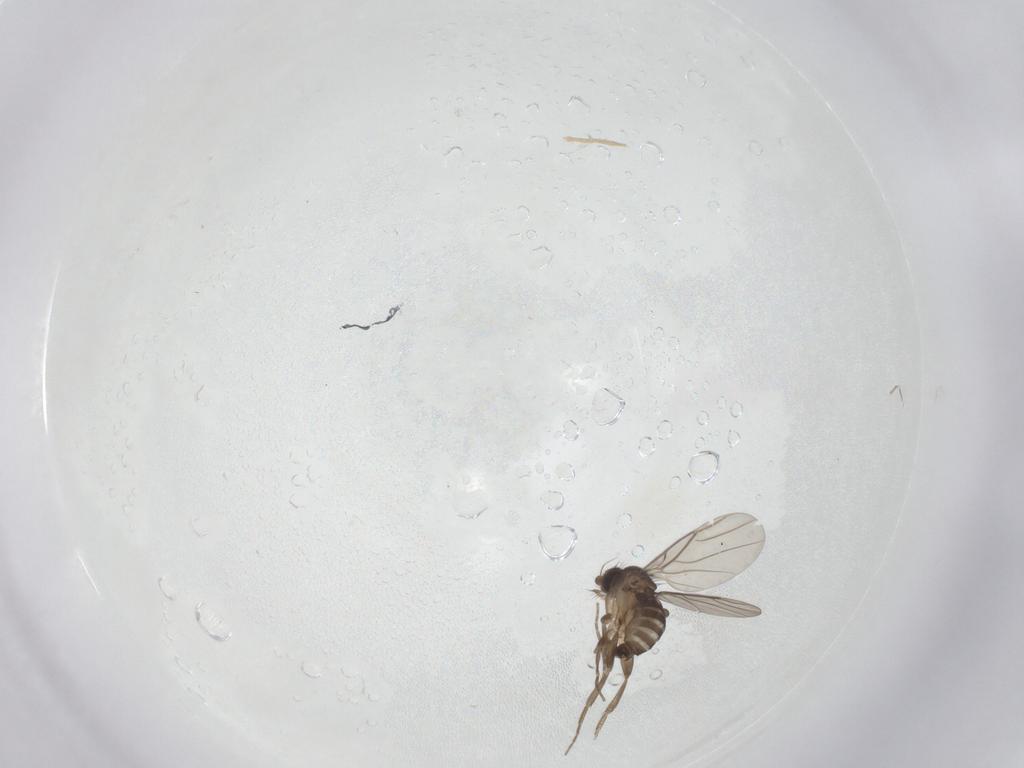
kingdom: Animalia
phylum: Arthropoda
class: Insecta
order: Diptera
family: Phoridae
